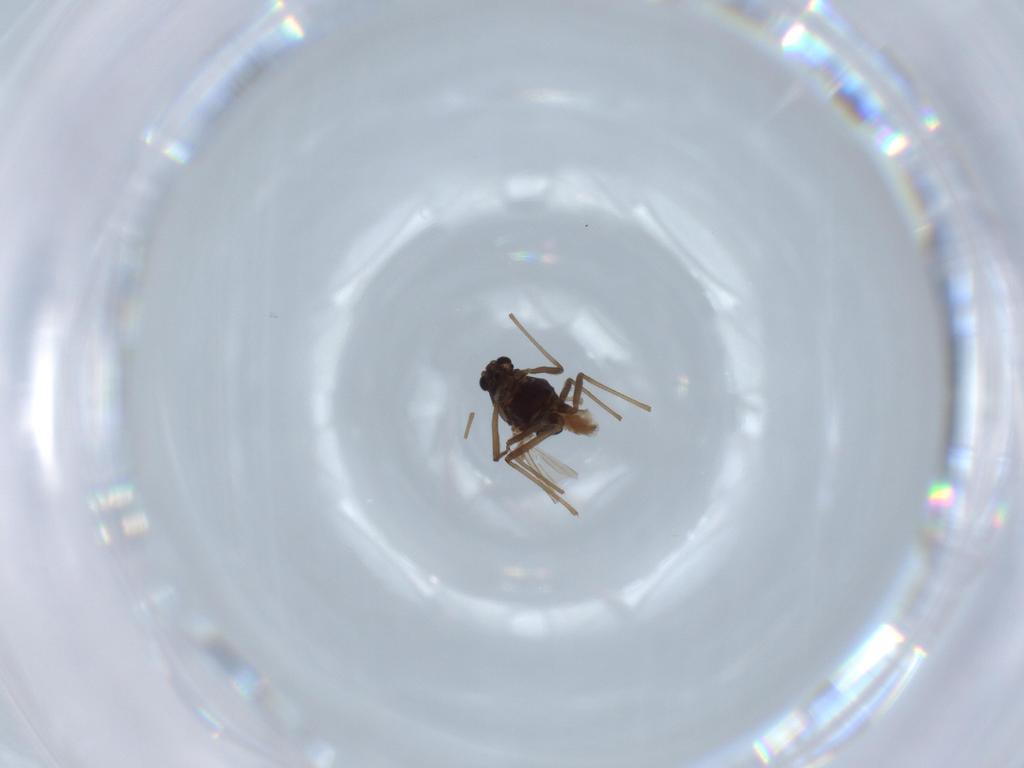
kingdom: Animalia
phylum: Arthropoda
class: Insecta
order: Diptera
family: Chironomidae
